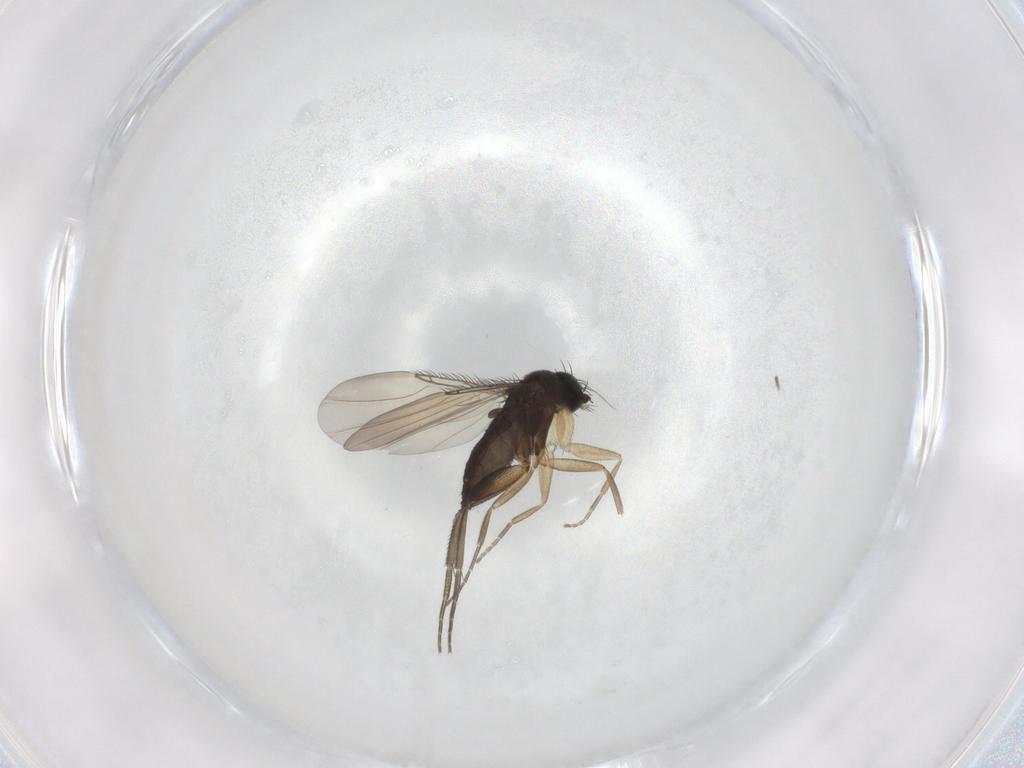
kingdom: Animalia
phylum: Arthropoda
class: Insecta
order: Diptera
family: Phoridae
